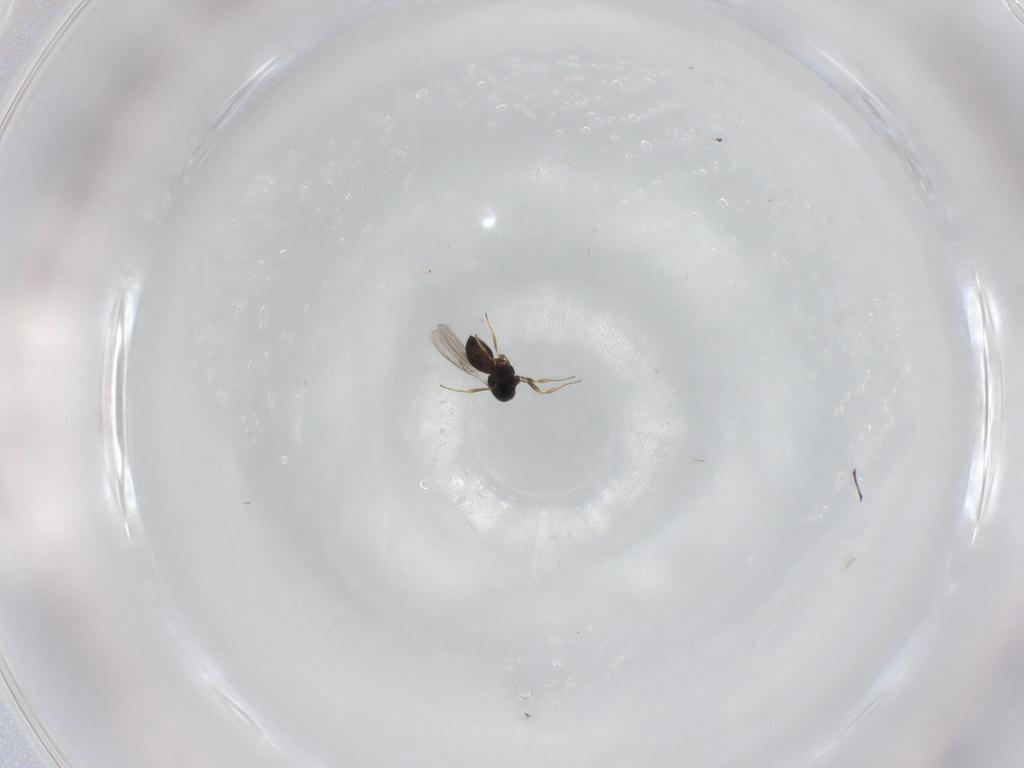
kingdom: Animalia
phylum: Arthropoda
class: Insecta
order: Hymenoptera
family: Scelionidae
